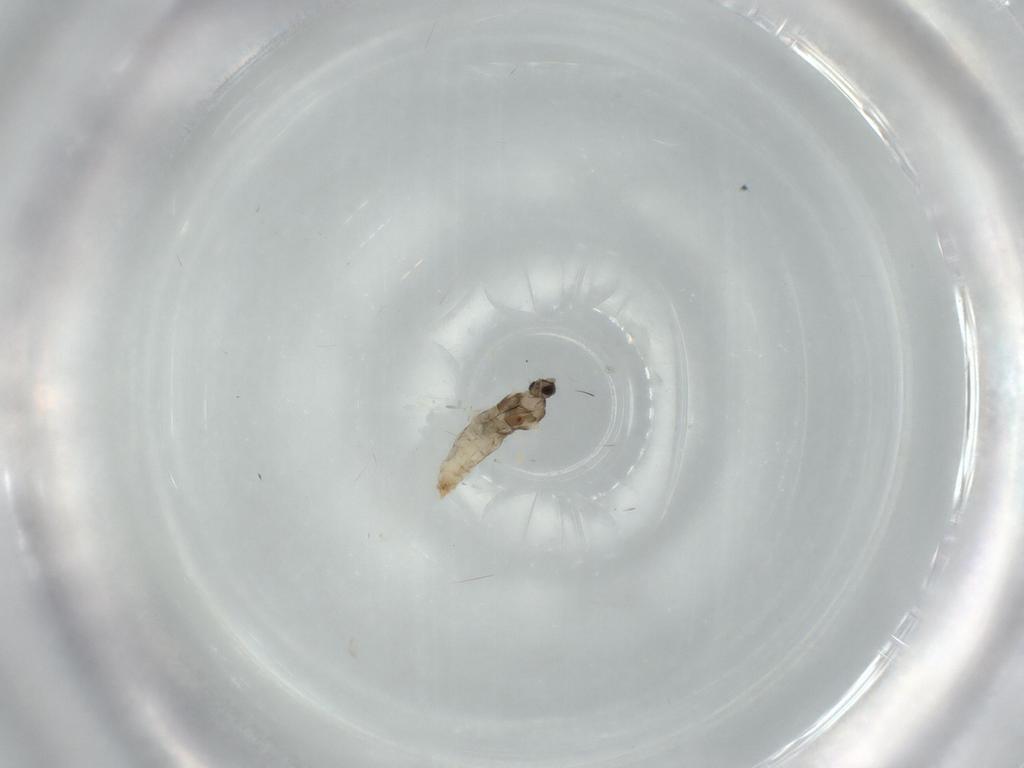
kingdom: Animalia
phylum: Arthropoda
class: Insecta
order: Diptera
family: Cecidomyiidae
